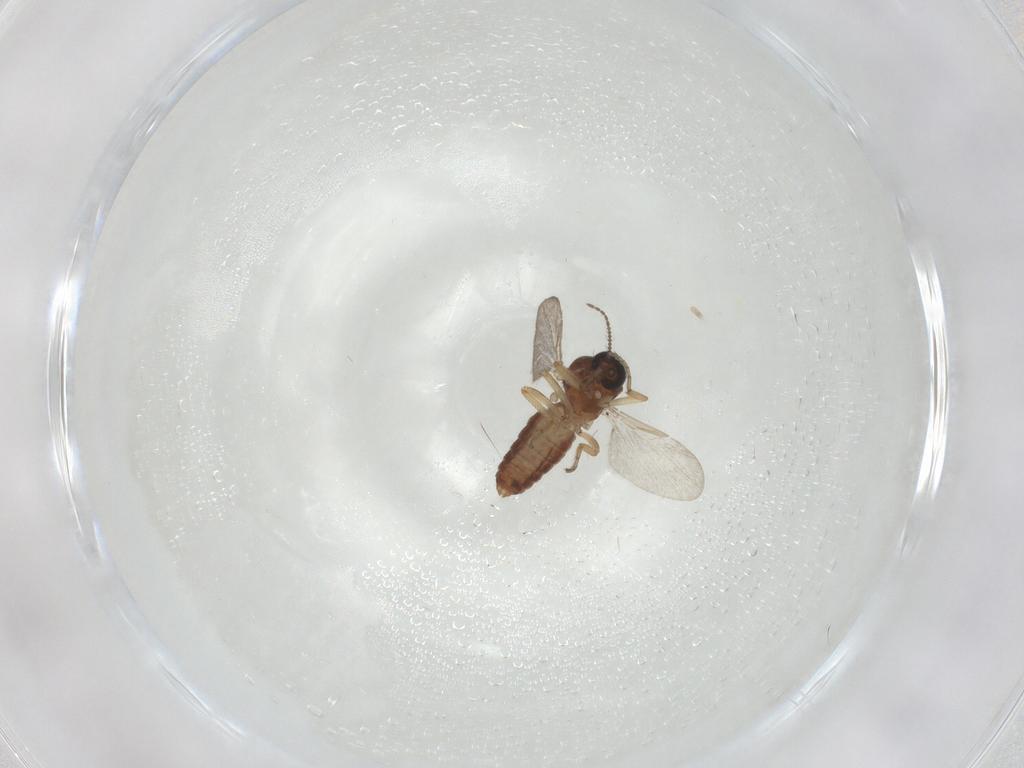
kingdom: Animalia
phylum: Arthropoda
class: Insecta
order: Diptera
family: Ceratopogonidae
